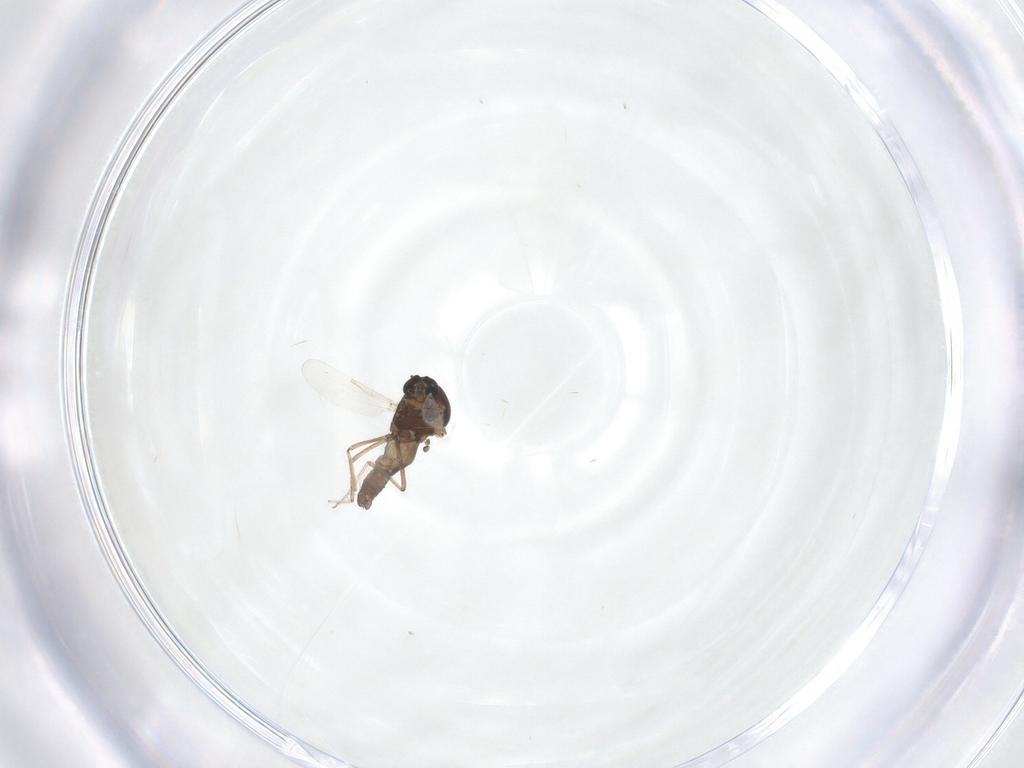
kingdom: Animalia
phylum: Arthropoda
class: Insecta
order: Diptera
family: Ceratopogonidae
